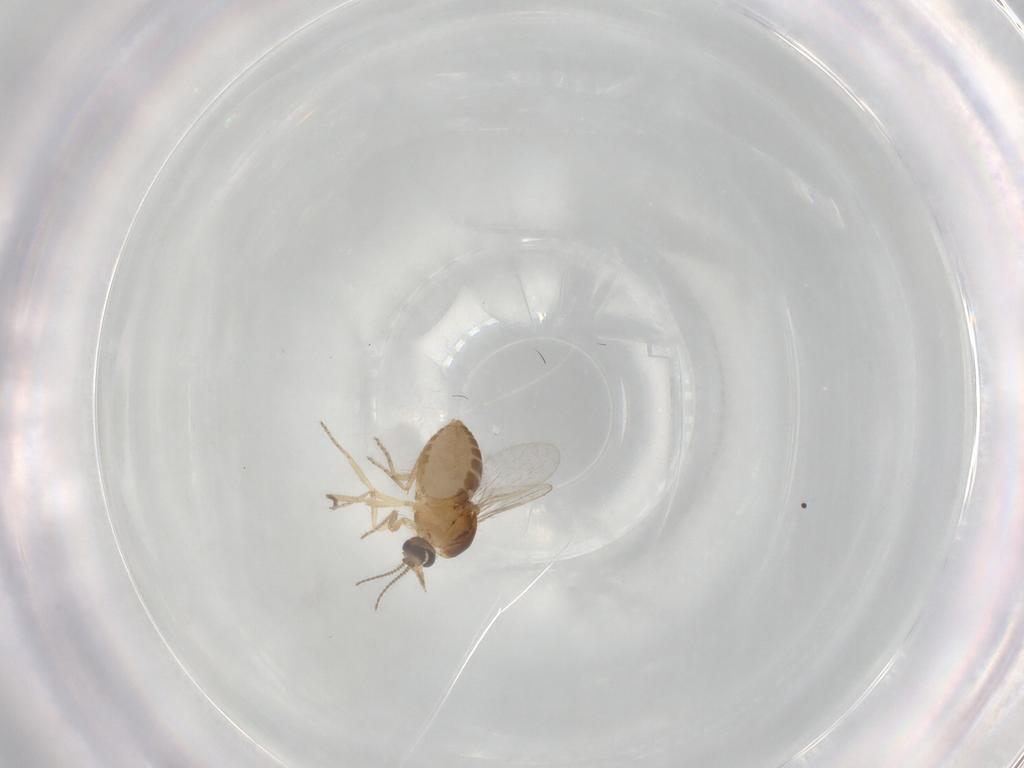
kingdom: Animalia
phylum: Arthropoda
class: Insecta
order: Diptera
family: Ceratopogonidae
